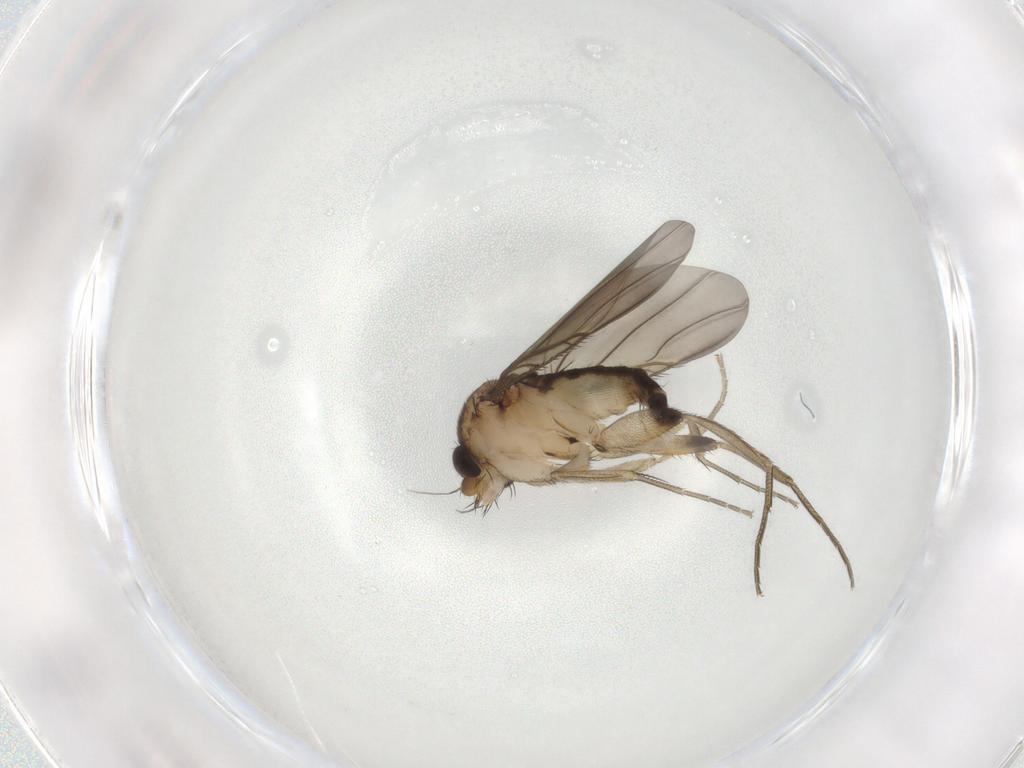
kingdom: Animalia
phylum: Arthropoda
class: Insecta
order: Diptera
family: Phoridae
